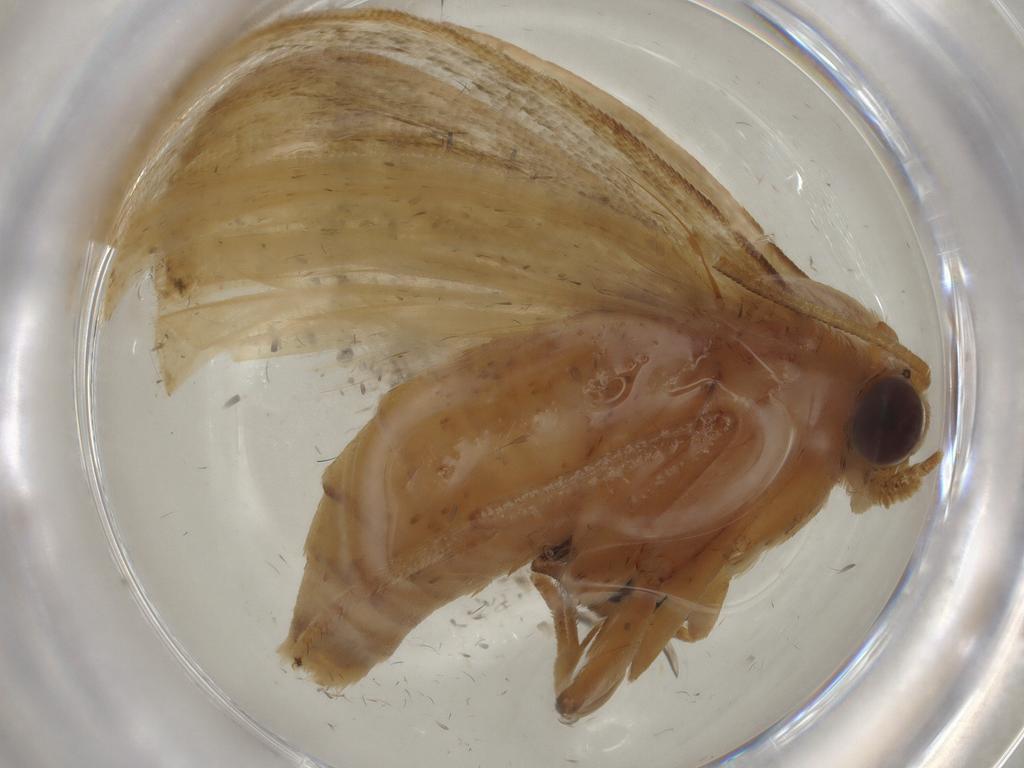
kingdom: Animalia
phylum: Arthropoda
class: Insecta
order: Lepidoptera
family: Noctuidae
